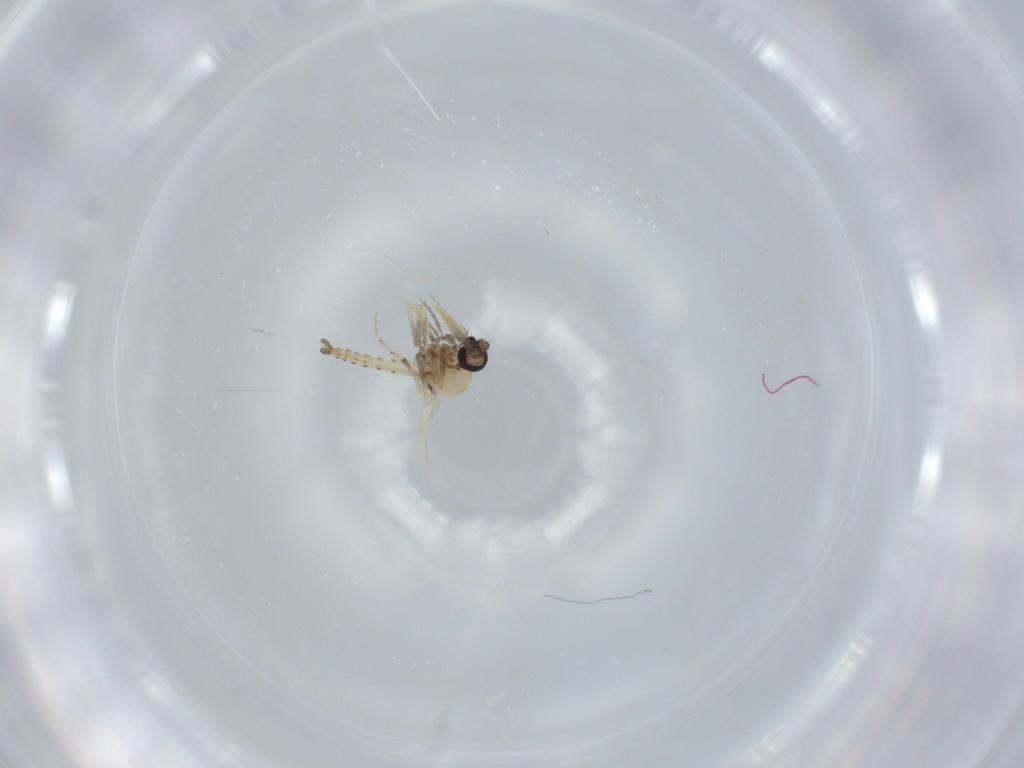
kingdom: Animalia
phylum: Arthropoda
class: Insecta
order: Diptera
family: Ceratopogonidae
